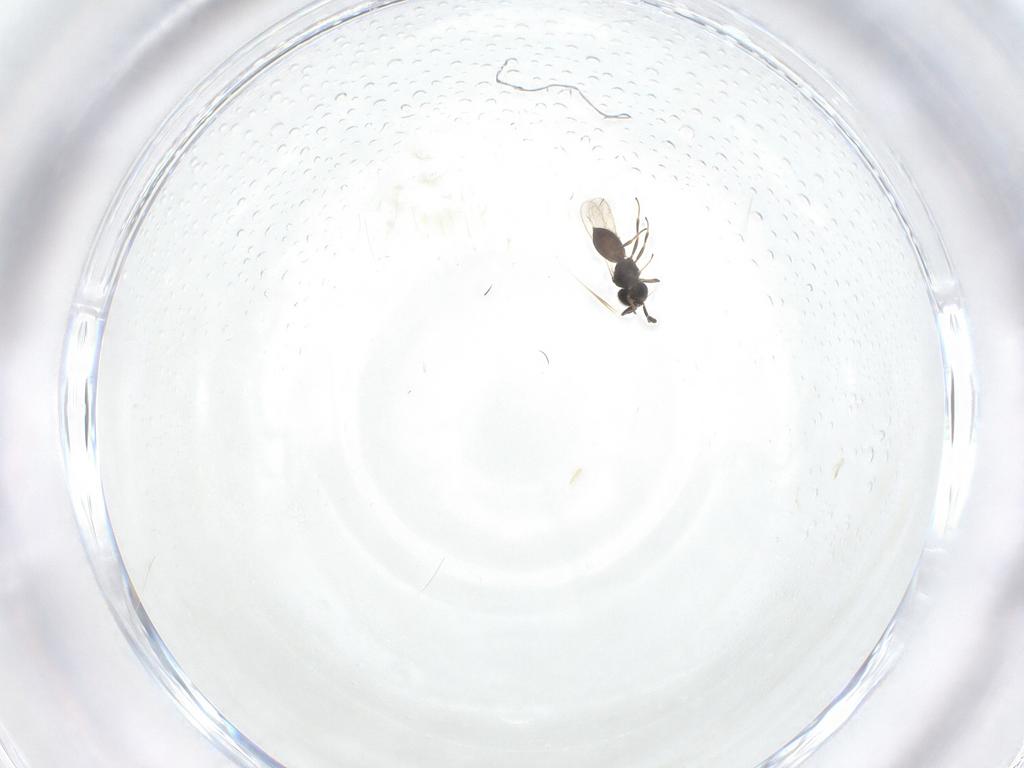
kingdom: Animalia
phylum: Arthropoda
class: Insecta
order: Hymenoptera
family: Scelionidae
